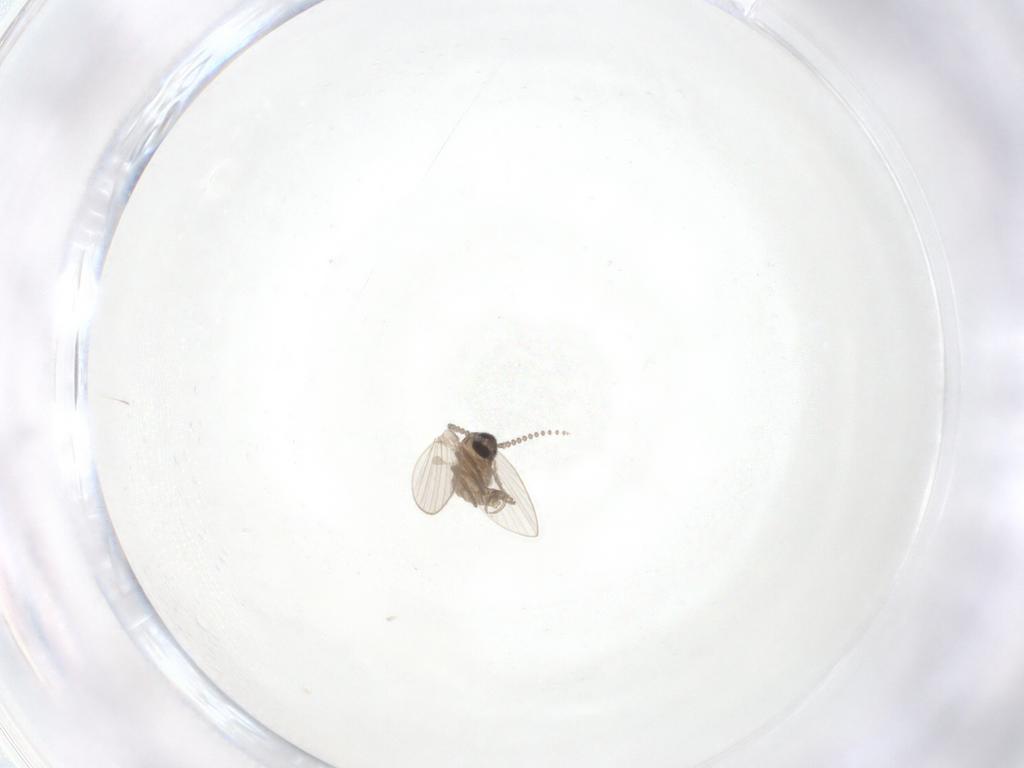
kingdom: Animalia
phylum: Arthropoda
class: Insecta
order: Diptera
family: Psychodidae
